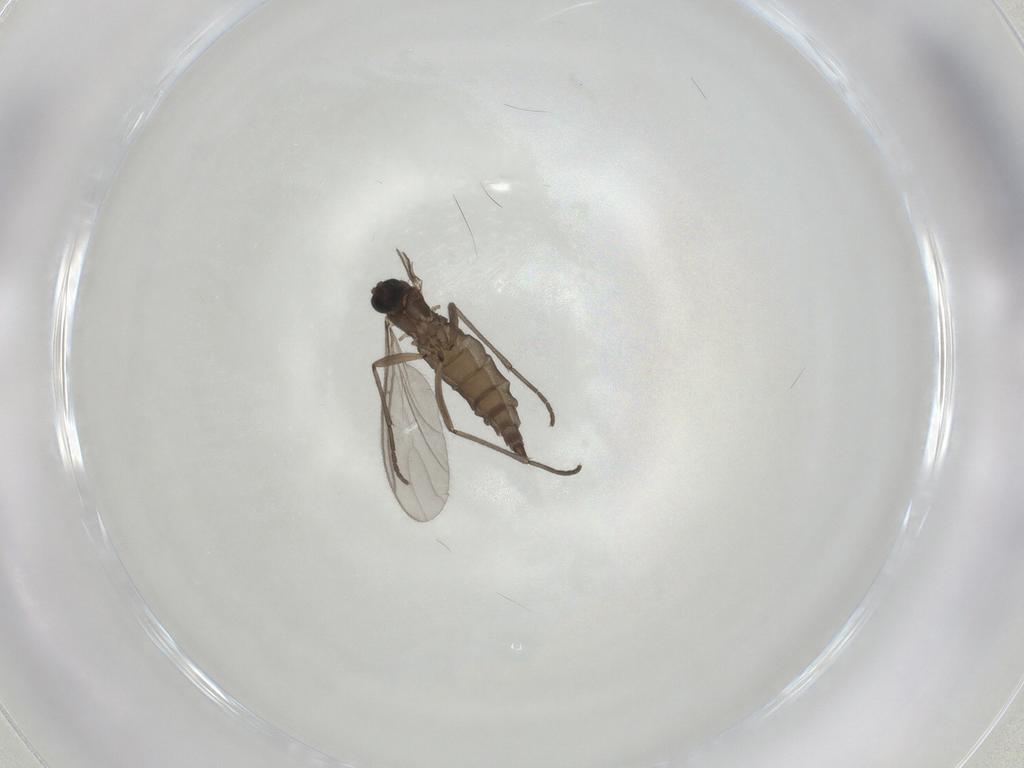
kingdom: Animalia
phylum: Arthropoda
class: Insecta
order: Diptera
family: Sciaridae
